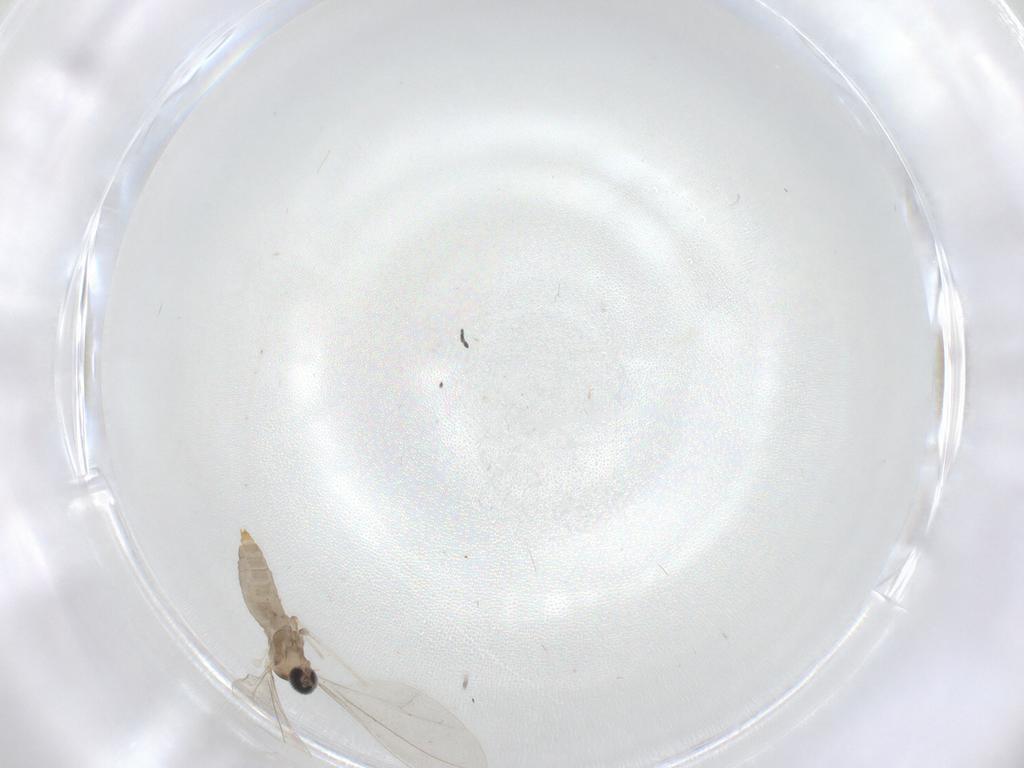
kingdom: Animalia
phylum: Arthropoda
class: Insecta
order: Diptera
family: Cecidomyiidae
